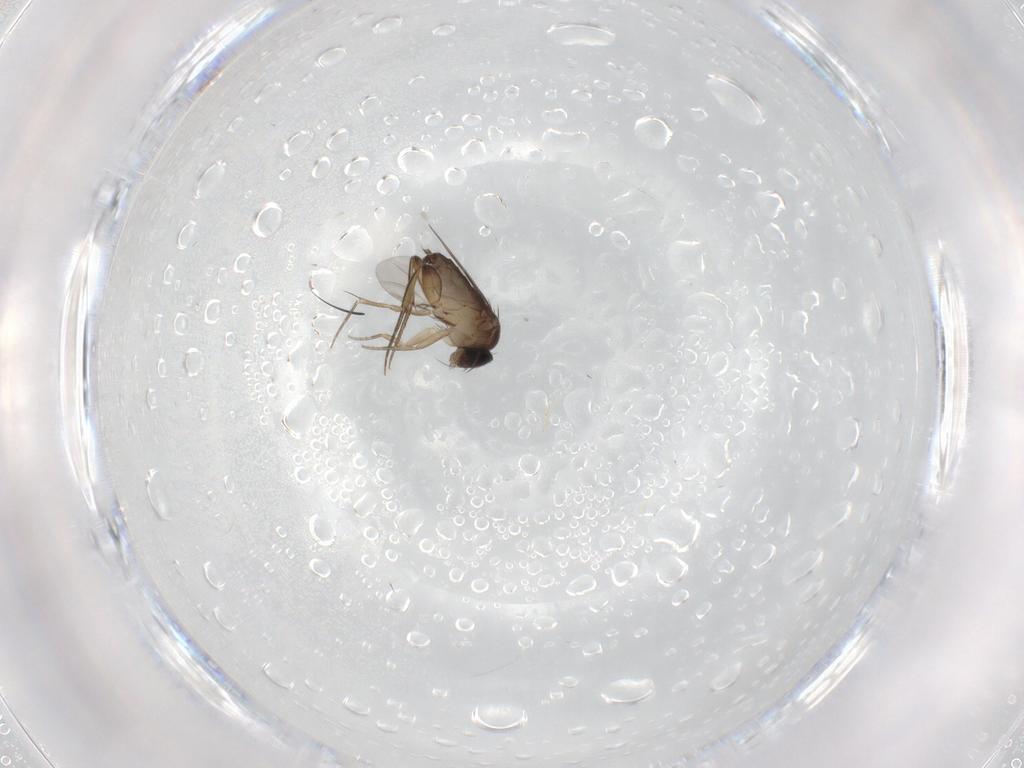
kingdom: Animalia
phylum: Arthropoda
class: Insecta
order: Diptera
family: Phoridae
